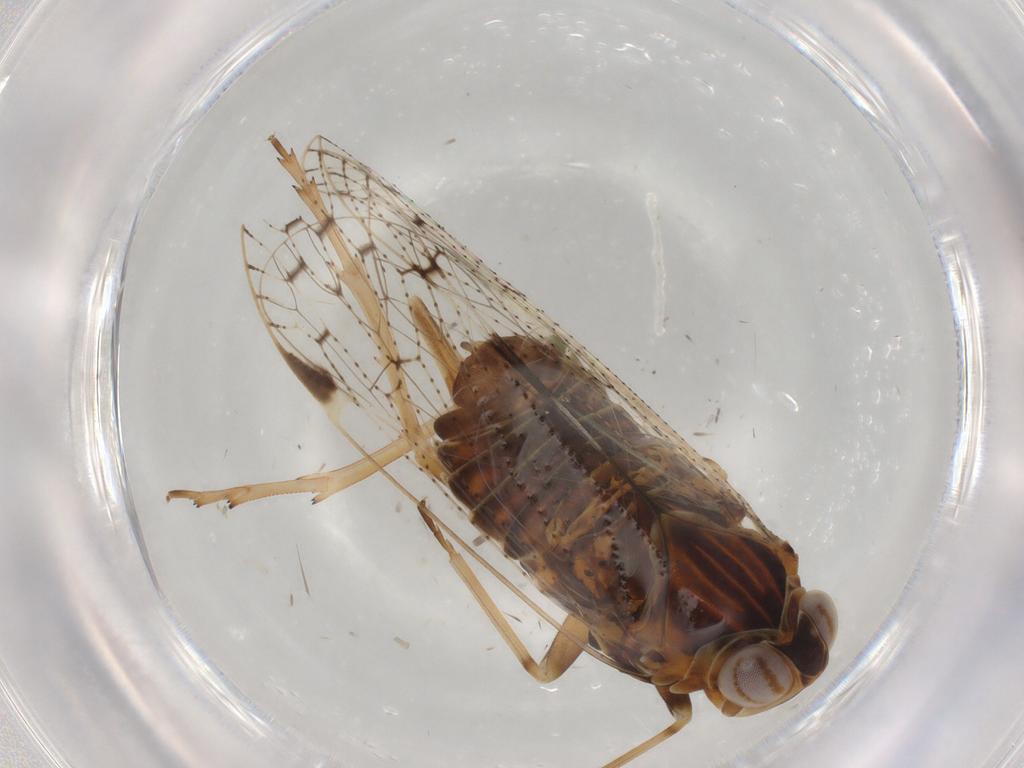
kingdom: Animalia
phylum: Arthropoda
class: Insecta
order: Hemiptera
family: Cixiidae
